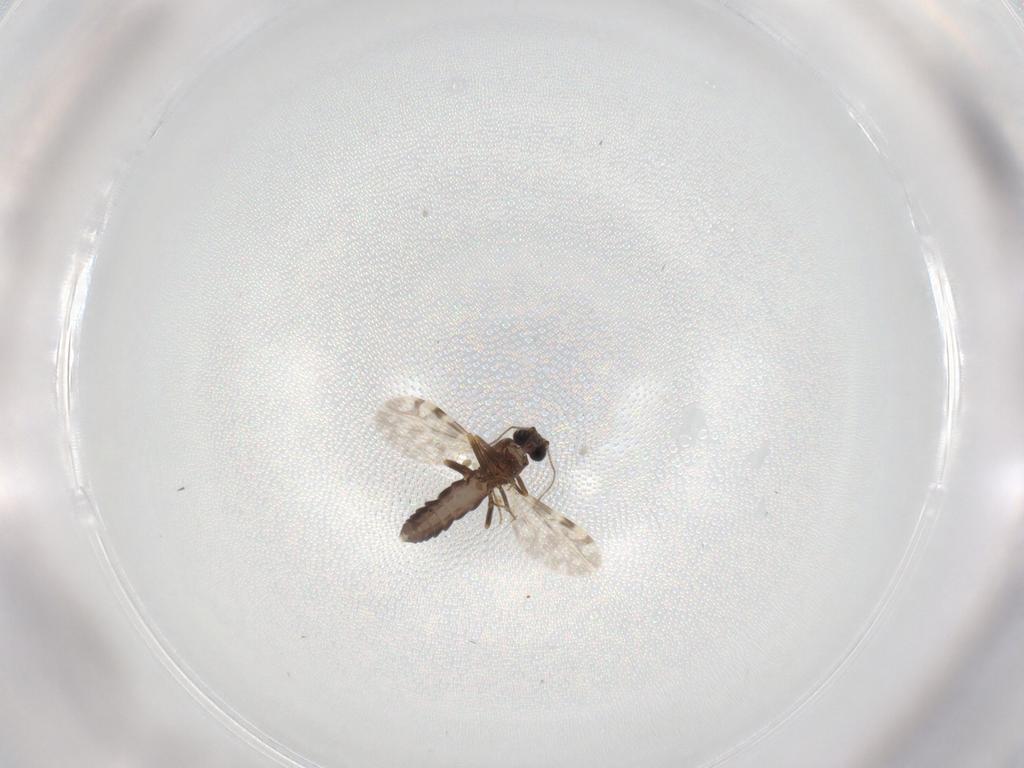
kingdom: Animalia
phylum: Arthropoda
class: Insecta
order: Diptera
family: Ceratopogonidae
